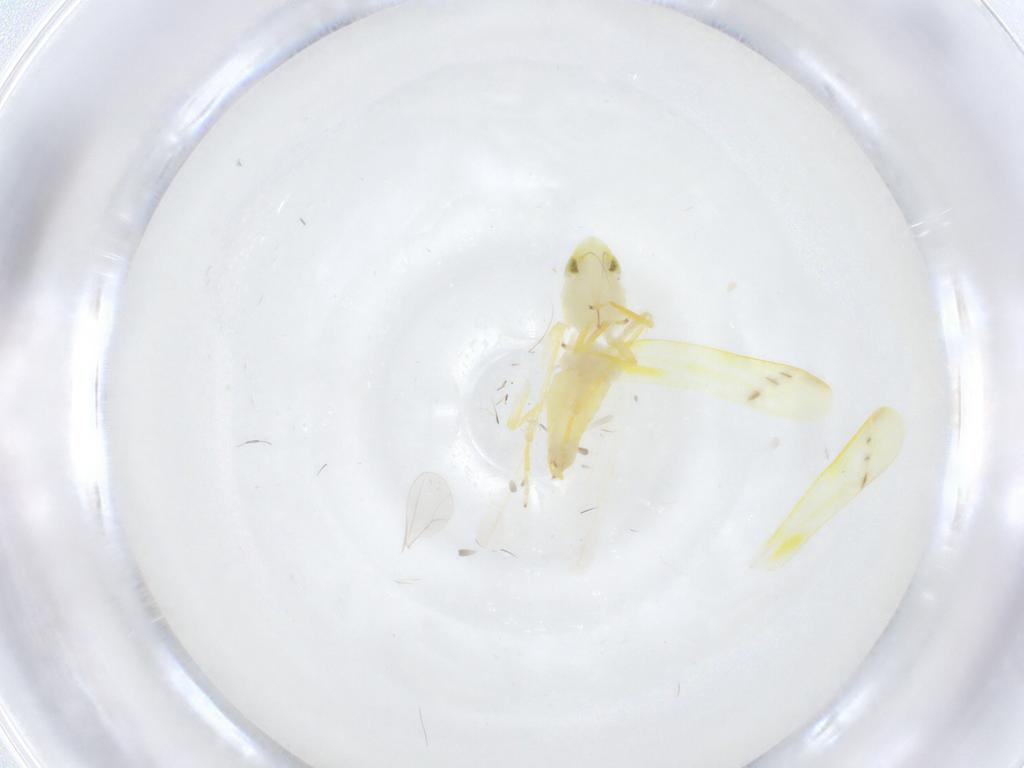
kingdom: Animalia
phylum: Arthropoda
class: Insecta
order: Hemiptera
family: Cicadellidae
